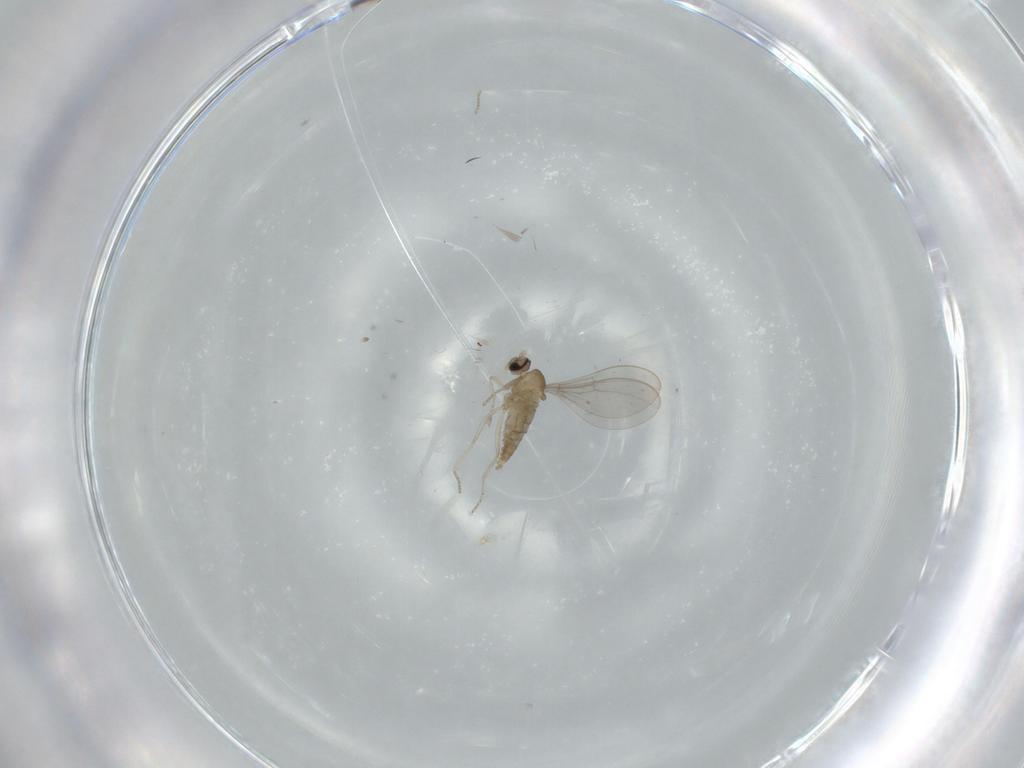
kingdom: Animalia
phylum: Arthropoda
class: Insecta
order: Diptera
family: Cecidomyiidae
